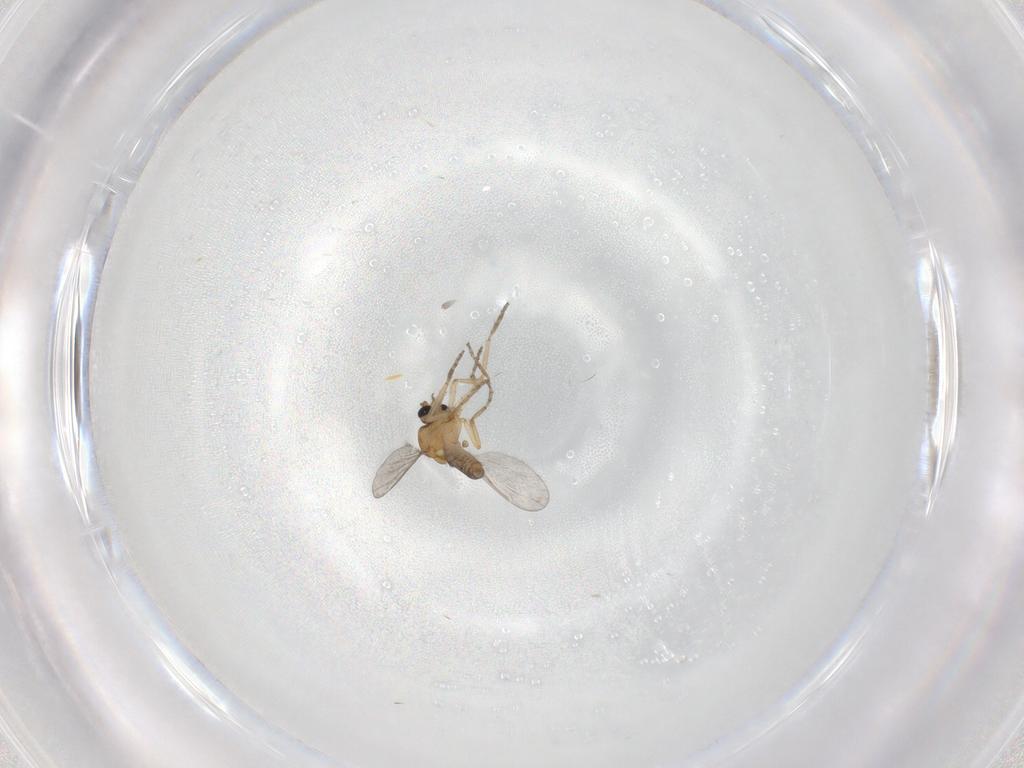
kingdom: Animalia
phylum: Arthropoda
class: Insecta
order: Diptera
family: Ceratopogonidae
